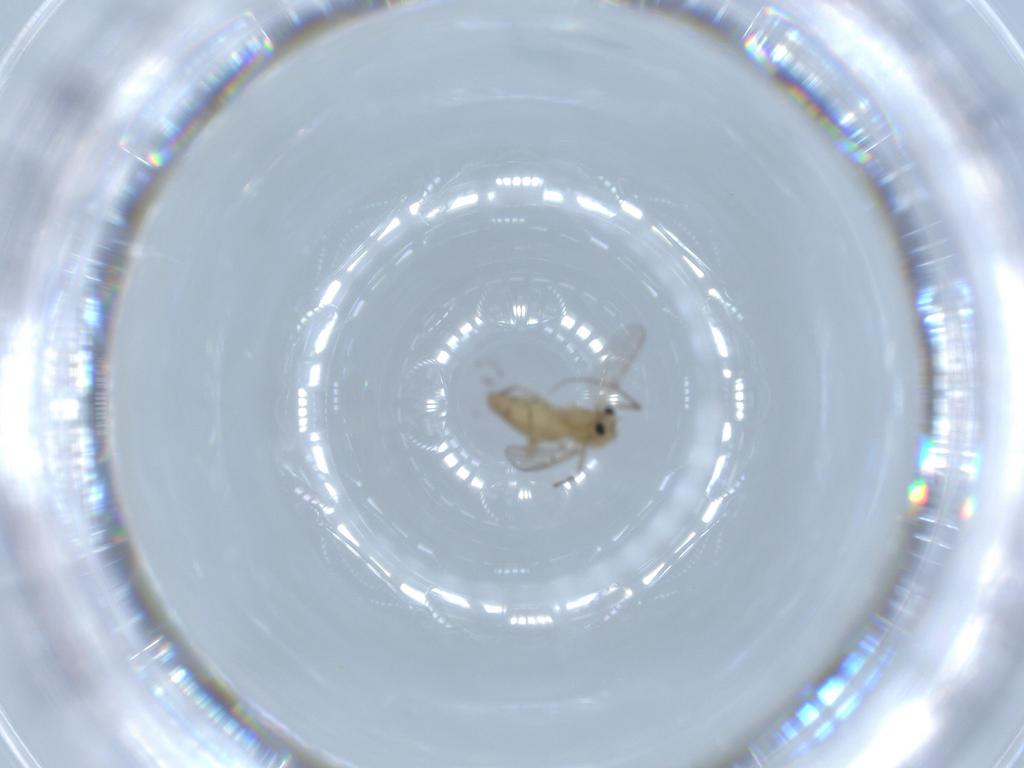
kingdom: Animalia
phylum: Arthropoda
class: Insecta
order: Diptera
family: Chironomidae
